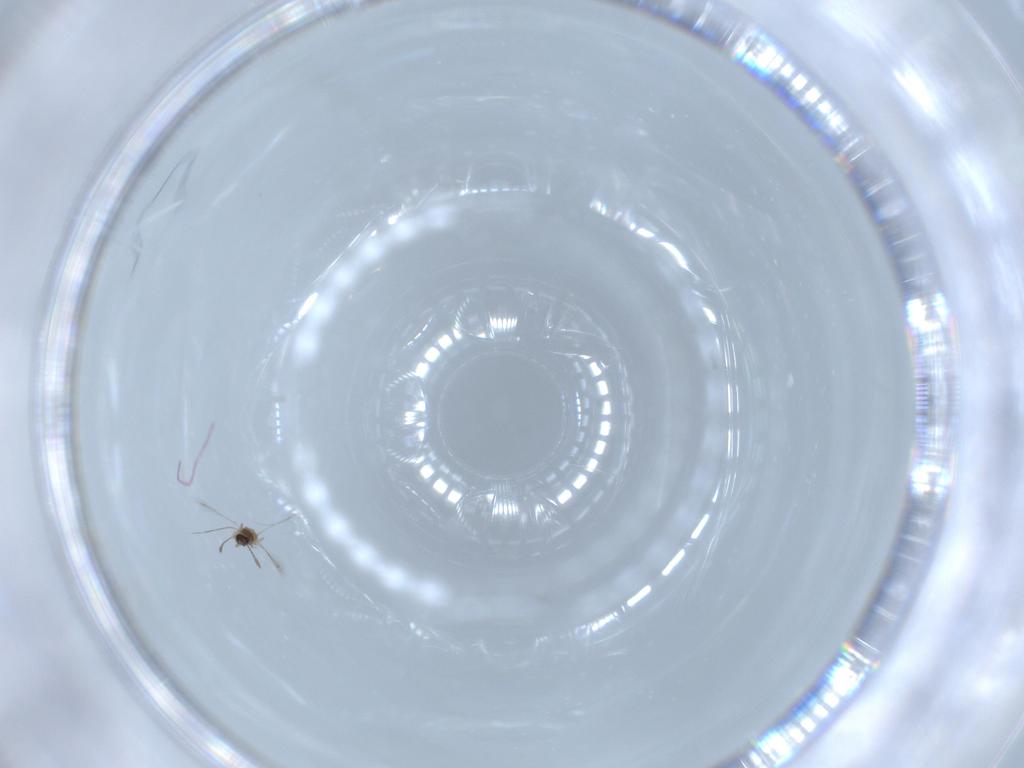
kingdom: Animalia
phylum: Arthropoda
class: Insecta
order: Hymenoptera
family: Mymaridae
